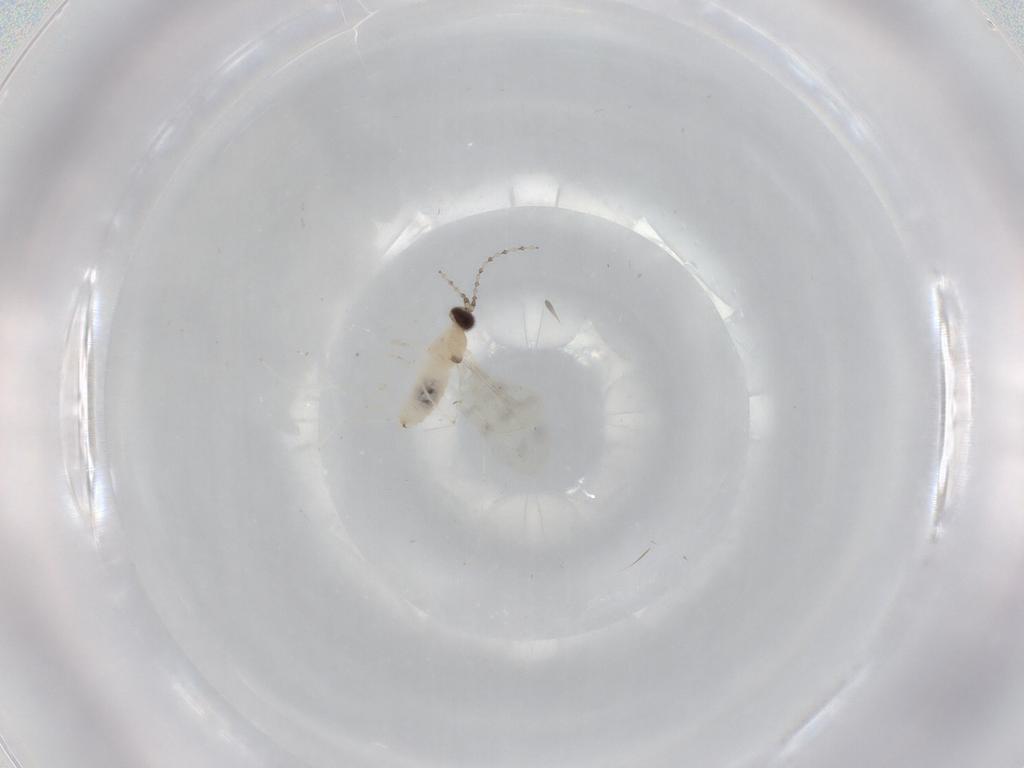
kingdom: Animalia
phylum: Arthropoda
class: Insecta
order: Diptera
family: Cecidomyiidae
